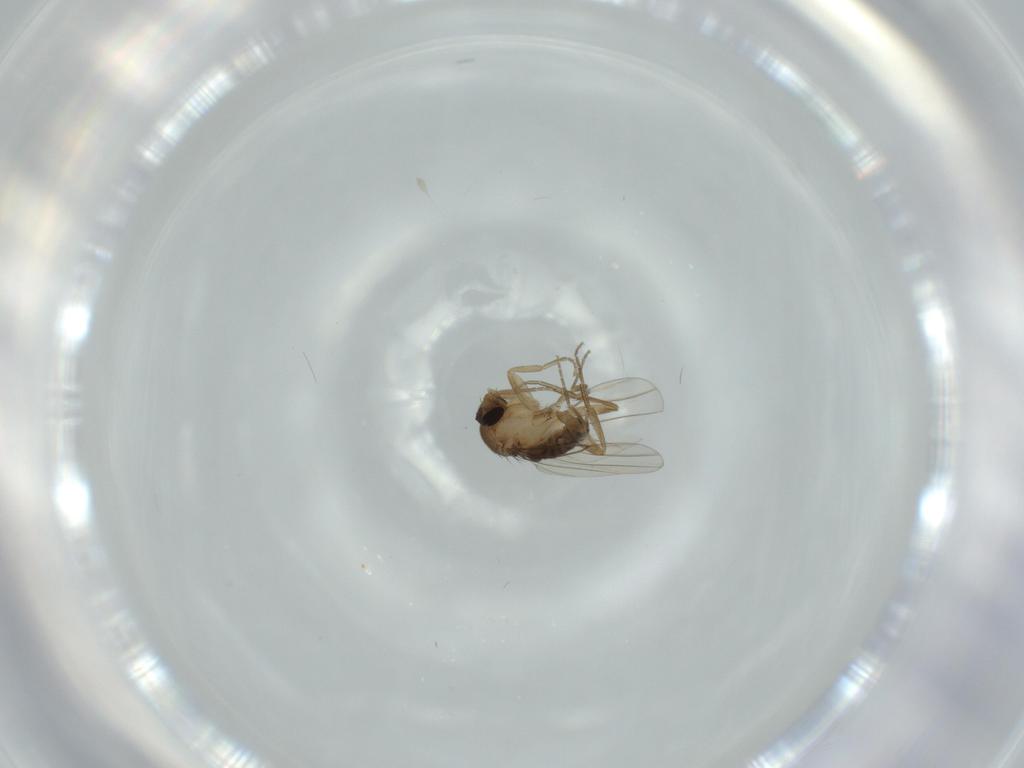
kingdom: Animalia
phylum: Arthropoda
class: Insecta
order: Diptera
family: Phoridae
